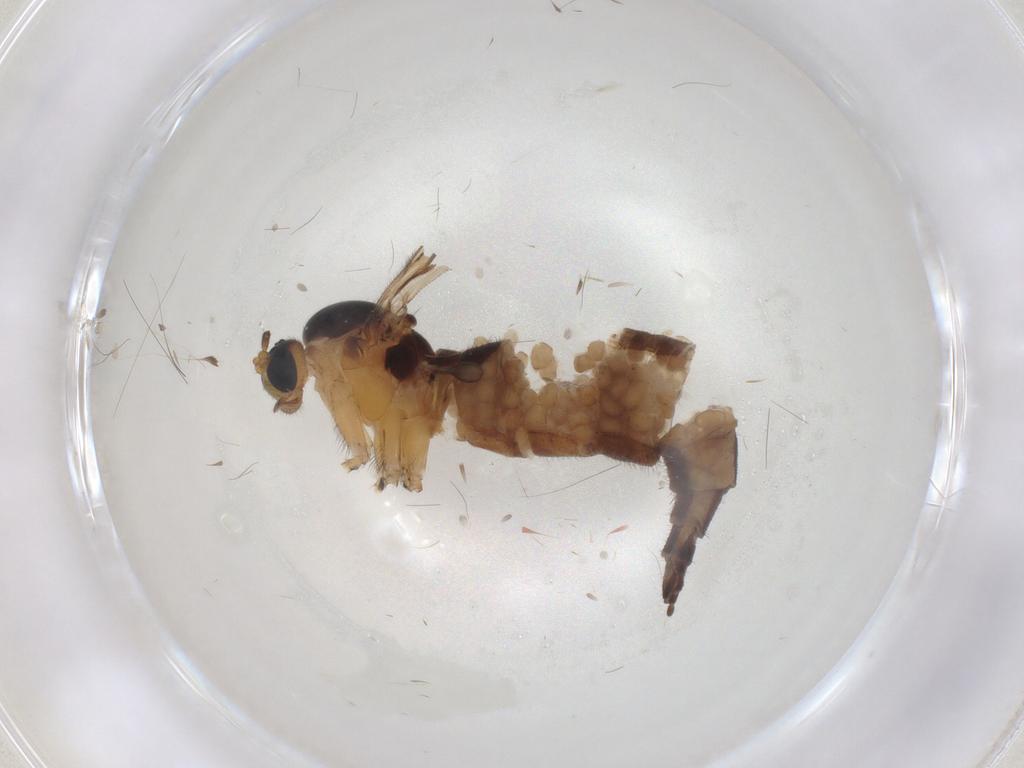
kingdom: Animalia
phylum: Arthropoda
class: Insecta
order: Diptera
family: Sciaridae
